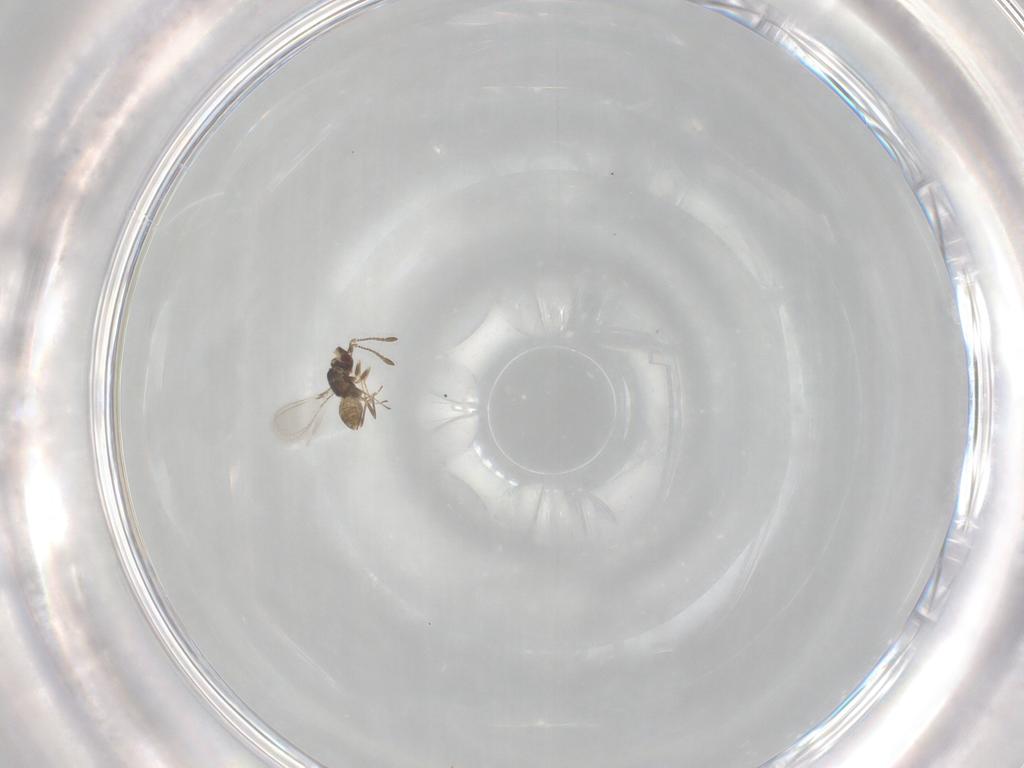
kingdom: Animalia
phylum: Arthropoda
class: Insecta
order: Hymenoptera
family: Mymaridae
